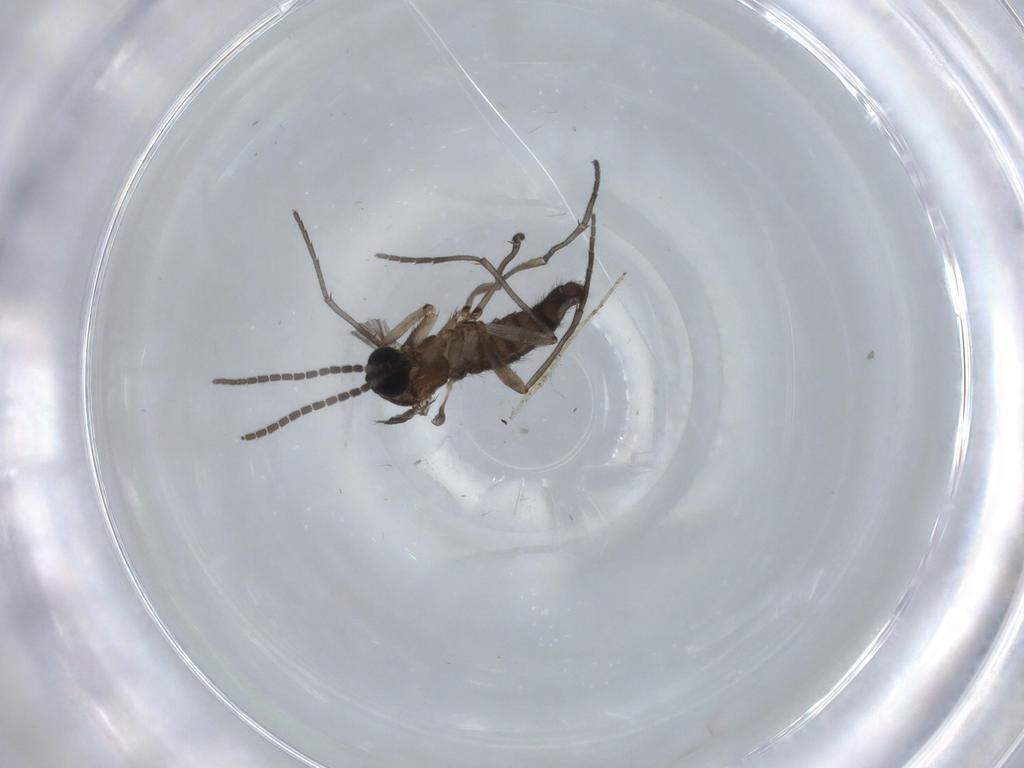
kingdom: Animalia
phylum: Arthropoda
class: Insecta
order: Diptera
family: Sciaridae
